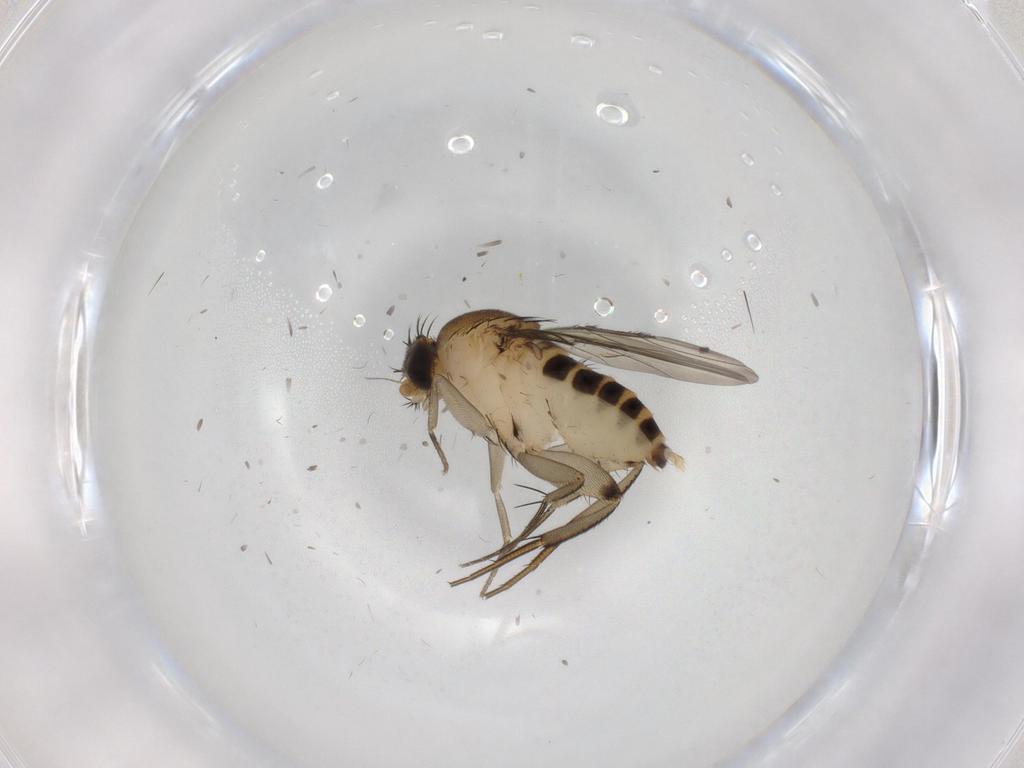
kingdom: Animalia
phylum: Arthropoda
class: Insecta
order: Diptera
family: Phoridae
